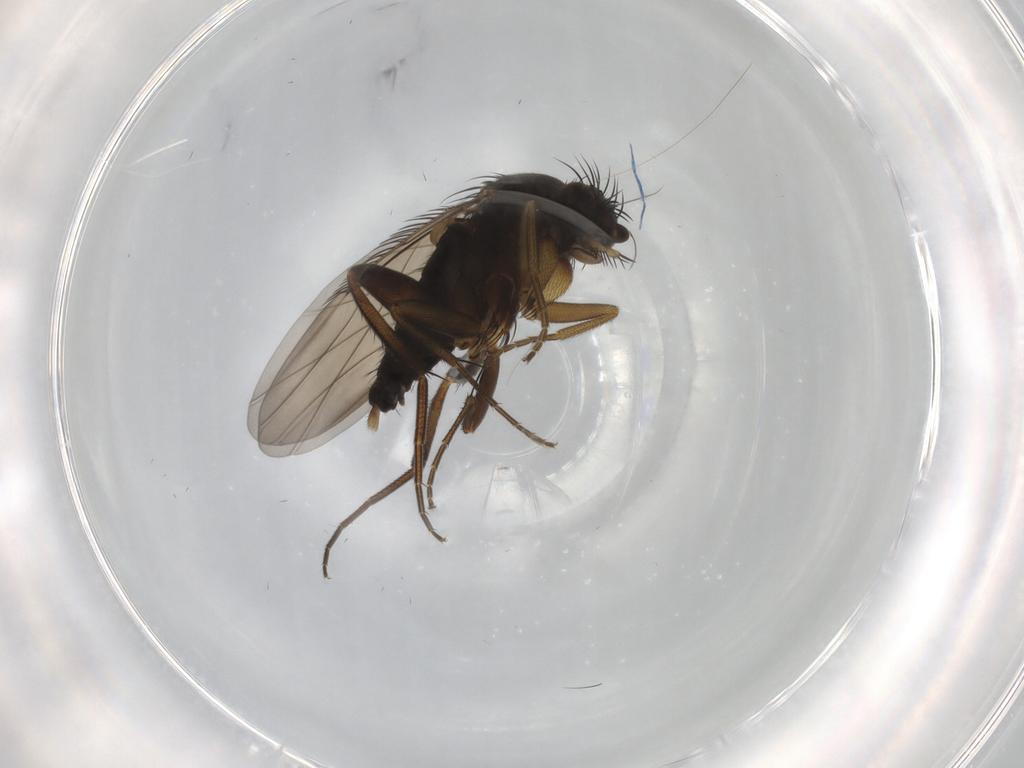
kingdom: Animalia
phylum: Arthropoda
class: Insecta
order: Diptera
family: Phoridae
